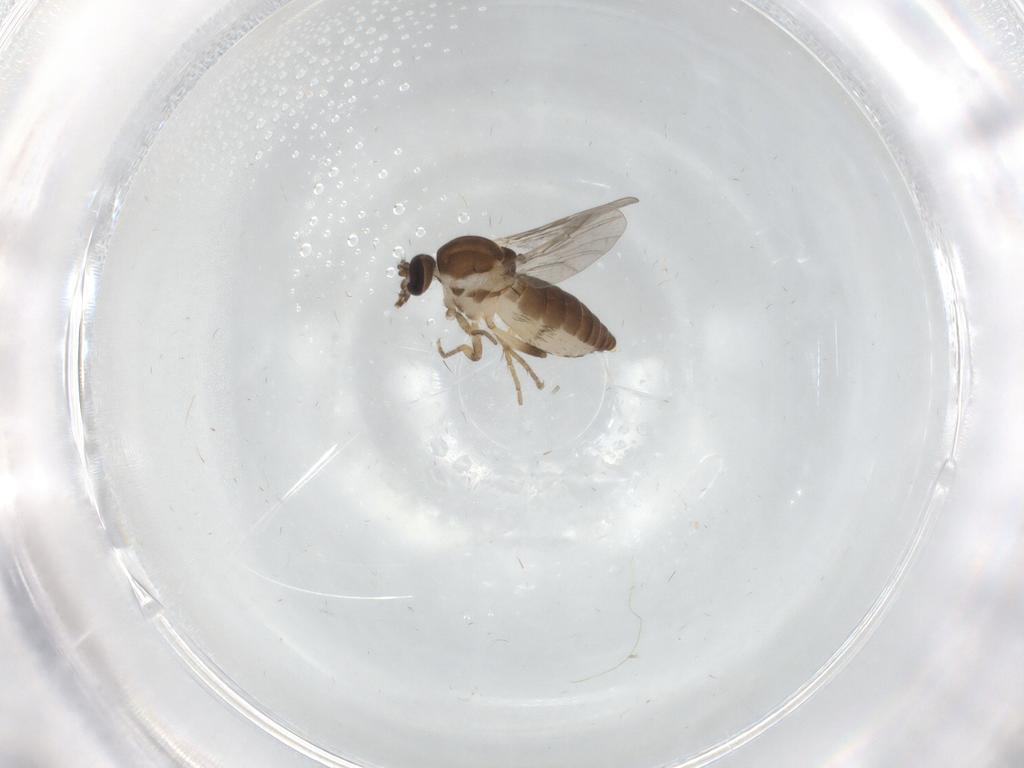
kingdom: Animalia
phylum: Arthropoda
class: Insecta
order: Diptera
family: Ceratopogonidae
